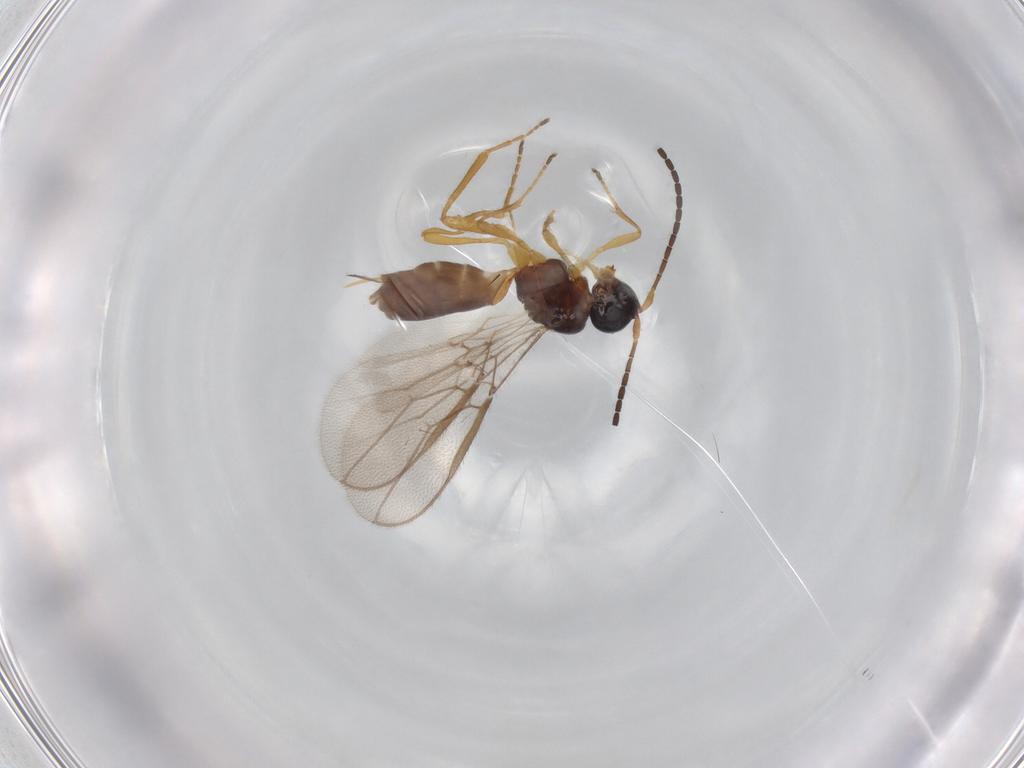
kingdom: Animalia
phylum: Arthropoda
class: Insecta
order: Hymenoptera
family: Braconidae
